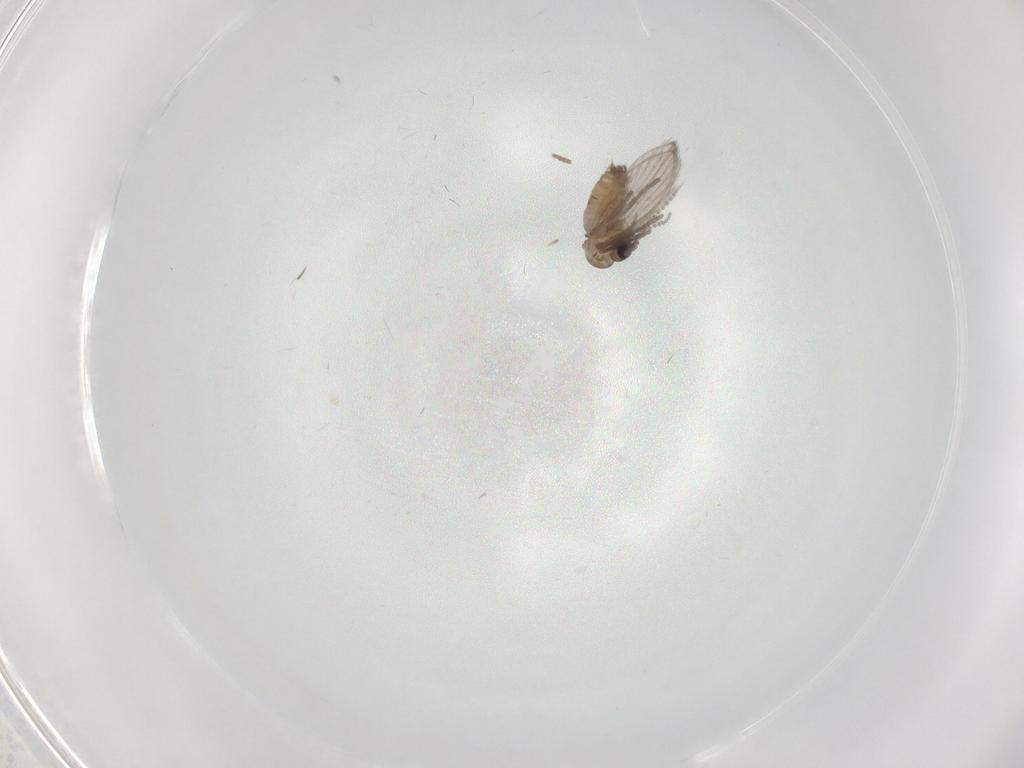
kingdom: Animalia
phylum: Arthropoda
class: Insecta
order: Diptera
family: Psychodidae
